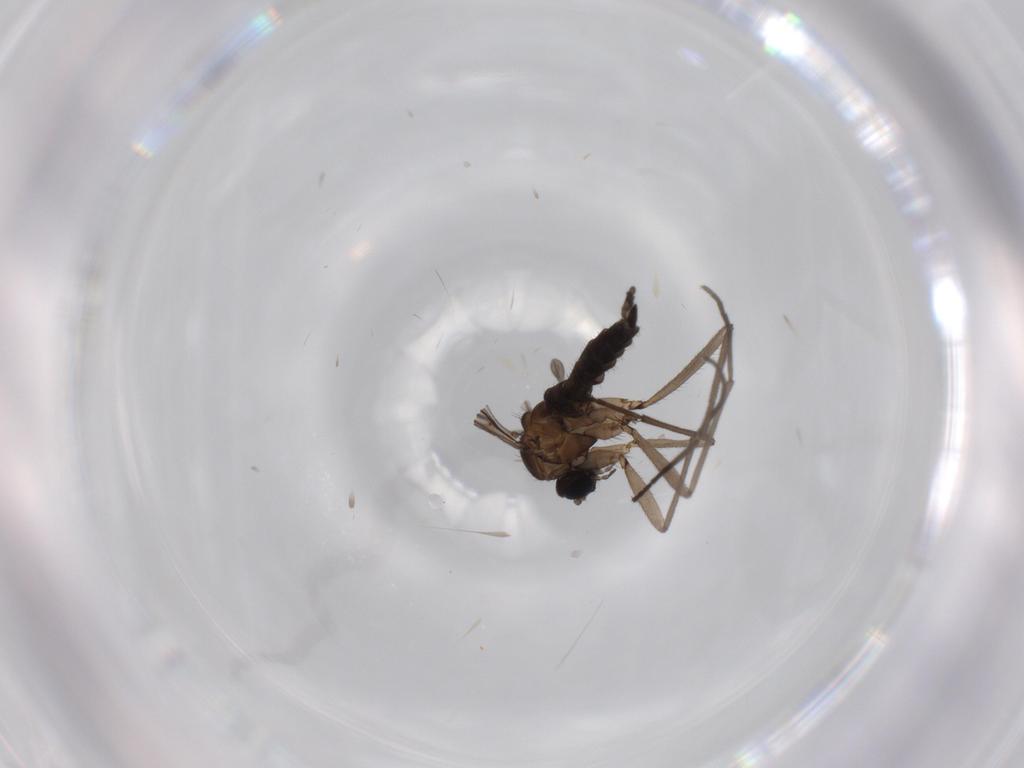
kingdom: Animalia
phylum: Arthropoda
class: Insecta
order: Diptera
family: Sciaridae
